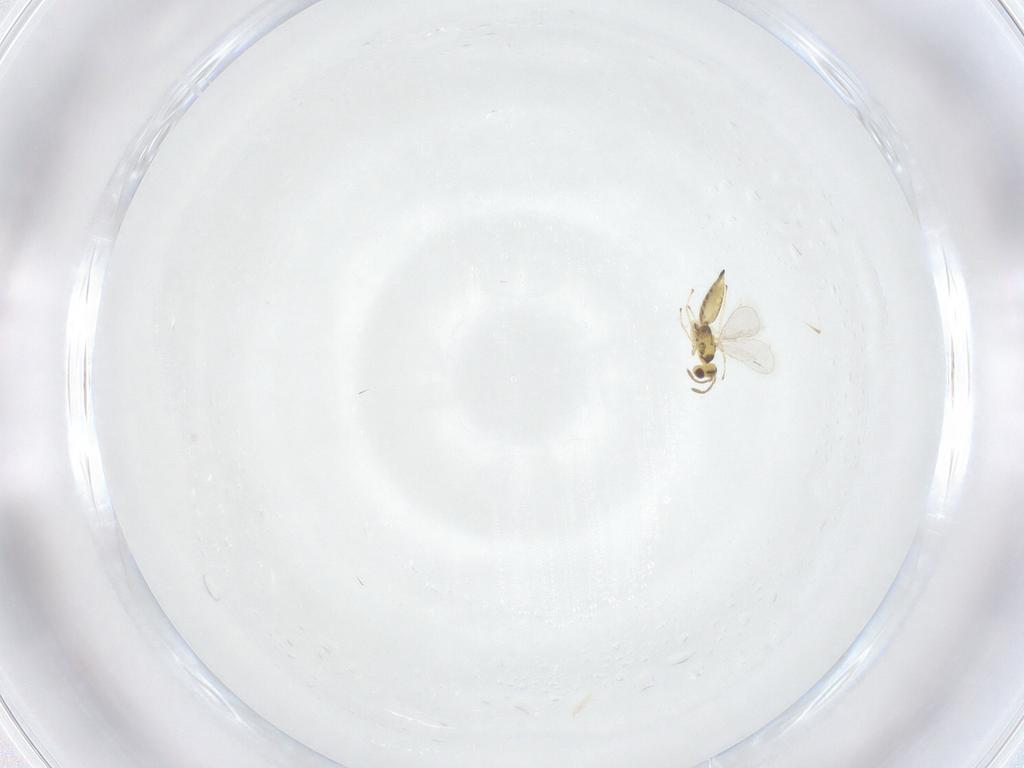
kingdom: Animalia
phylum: Arthropoda
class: Insecta
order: Hymenoptera
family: Eulophidae
